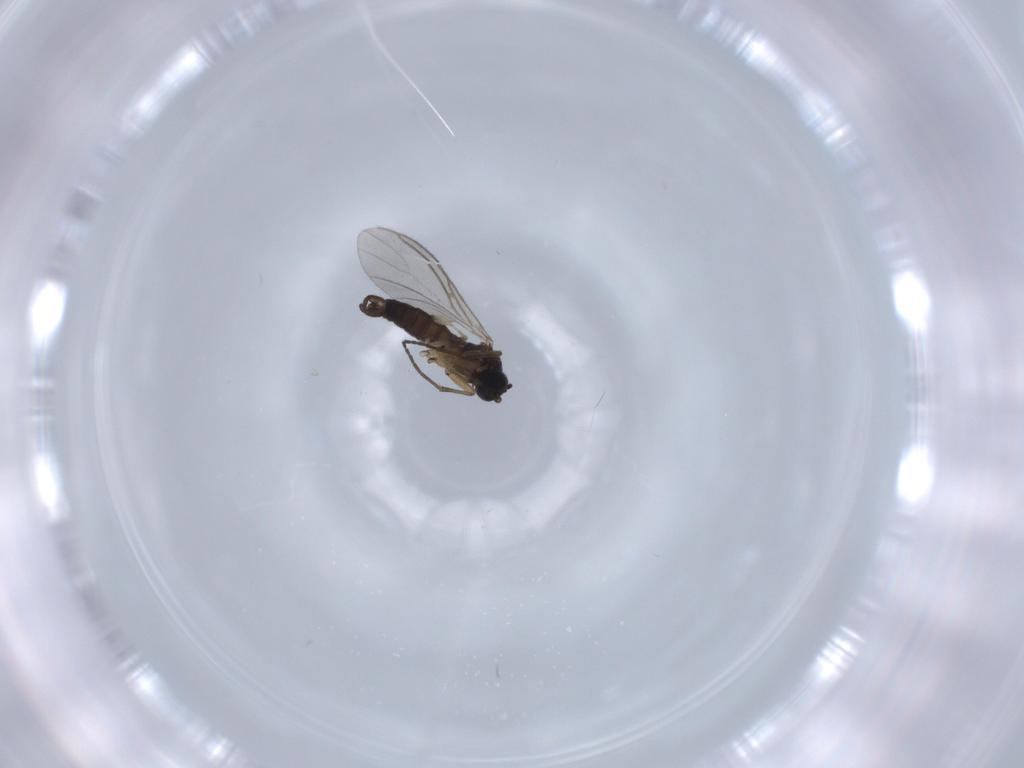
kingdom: Animalia
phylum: Arthropoda
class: Insecta
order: Diptera
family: Sciaridae
